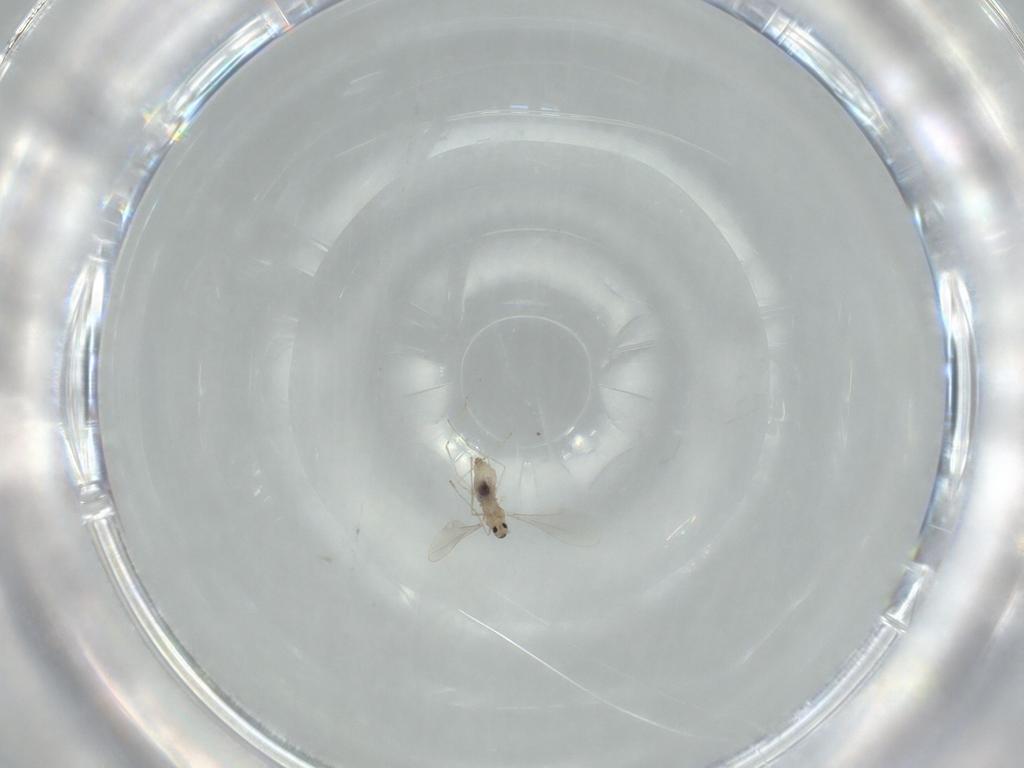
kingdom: Animalia
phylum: Arthropoda
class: Insecta
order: Diptera
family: Cecidomyiidae
